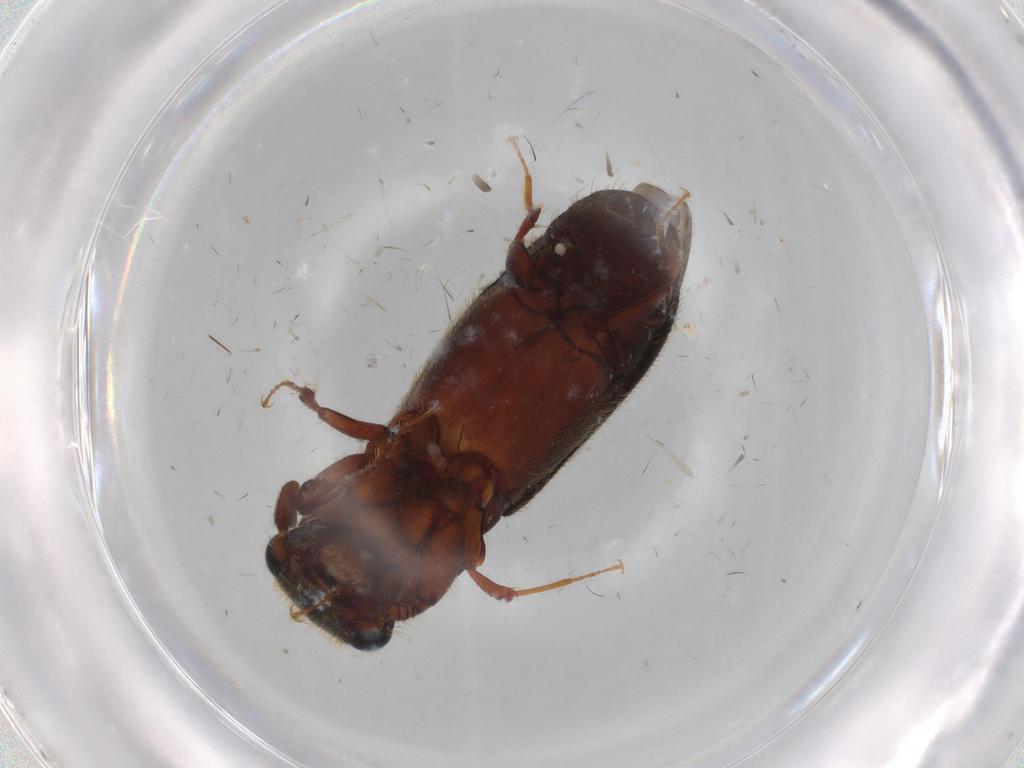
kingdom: Animalia
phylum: Arthropoda
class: Insecta
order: Coleoptera
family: Curculionidae
